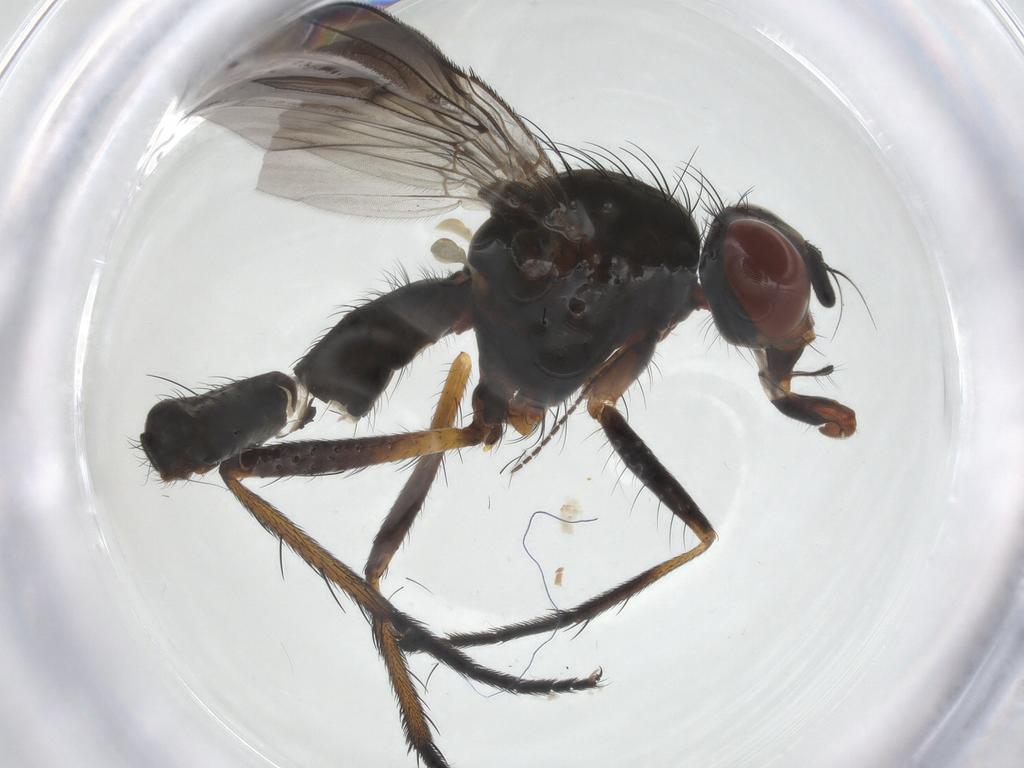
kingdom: Animalia
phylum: Arthropoda
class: Insecta
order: Diptera
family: Anthomyiidae
